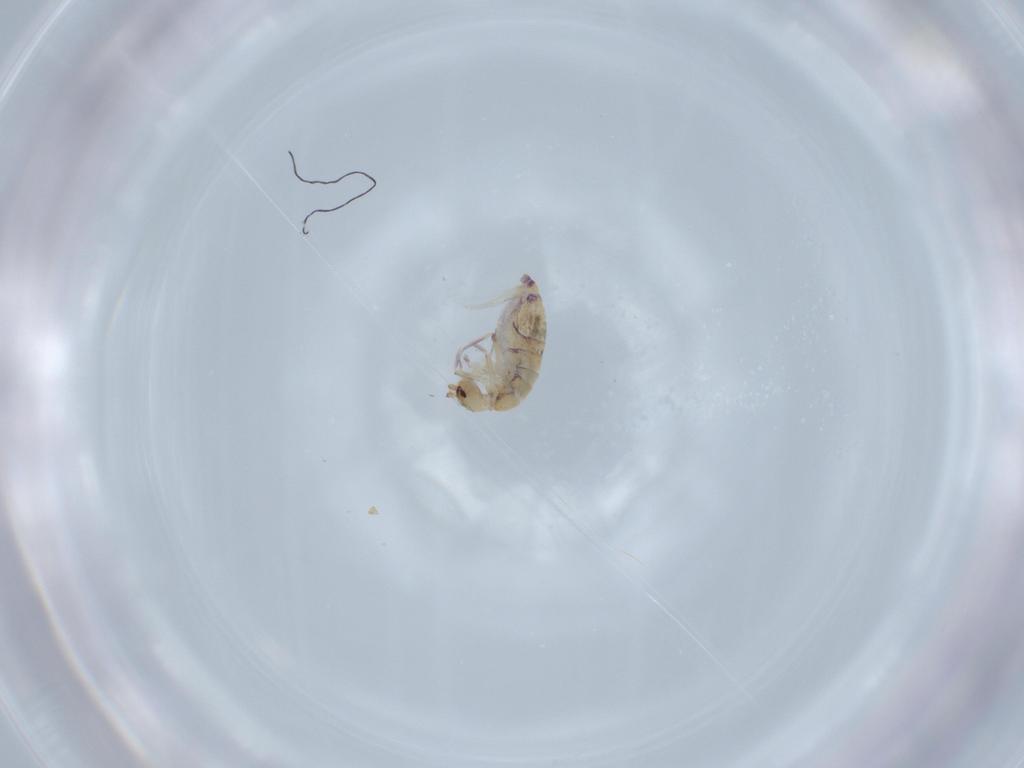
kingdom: Animalia
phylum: Arthropoda
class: Collembola
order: Entomobryomorpha
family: Entomobryidae
